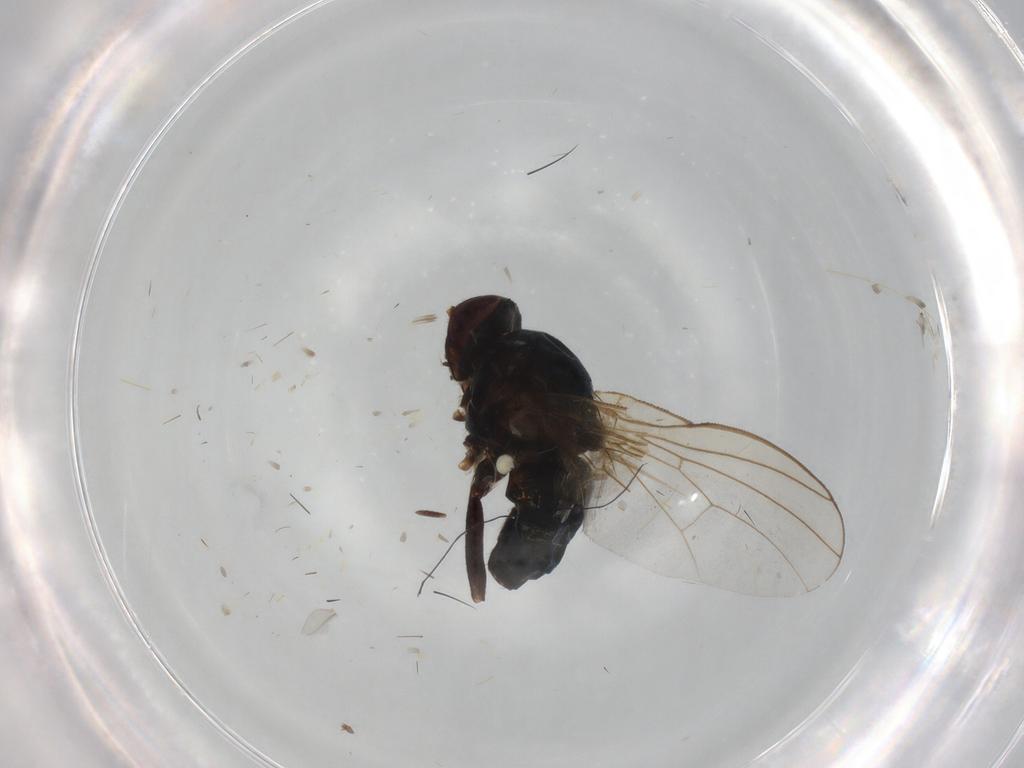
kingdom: Animalia
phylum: Arthropoda
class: Insecta
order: Diptera
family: Cecidomyiidae
